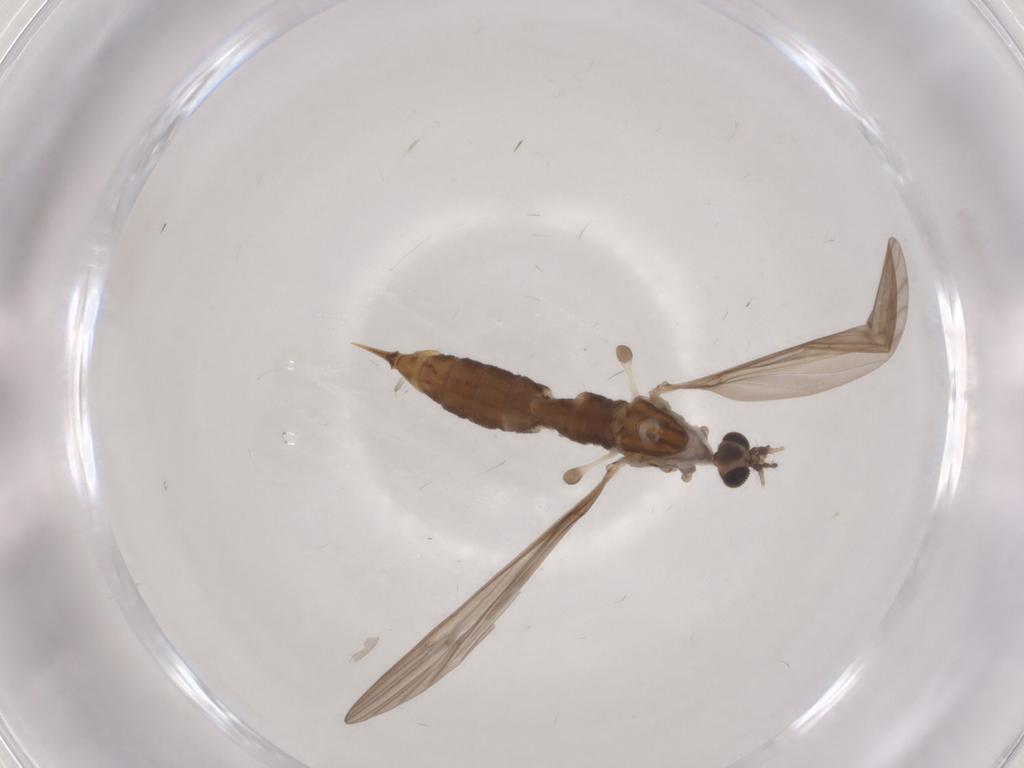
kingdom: Animalia
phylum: Arthropoda
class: Insecta
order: Diptera
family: Limoniidae
